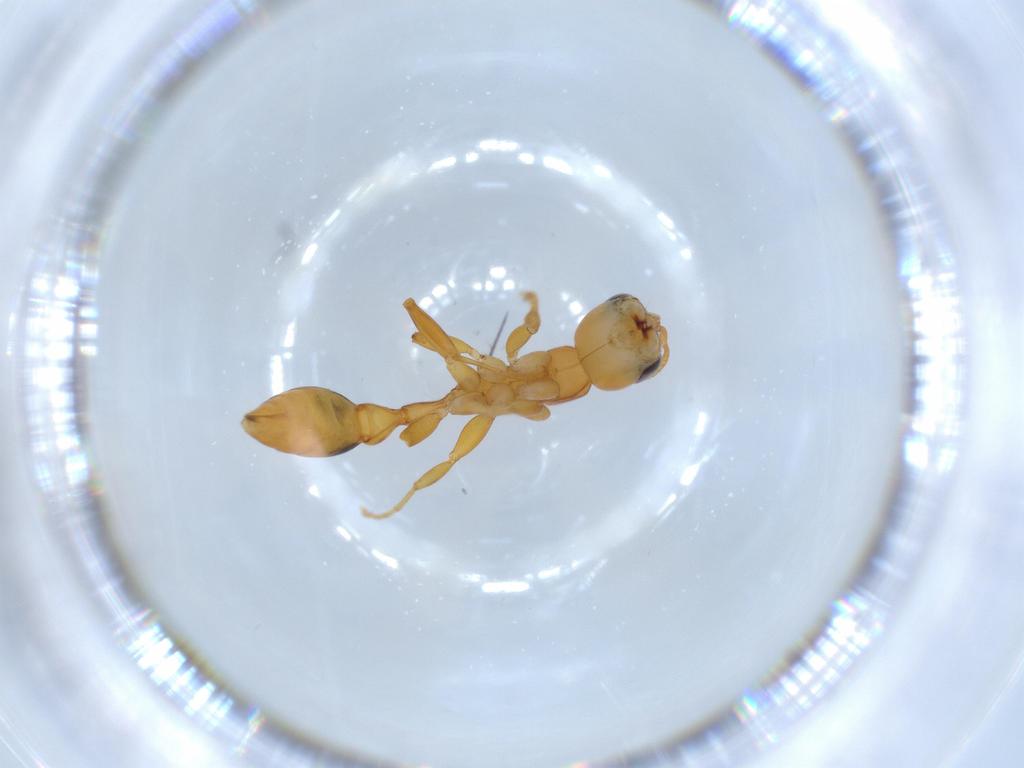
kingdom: Animalia
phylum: Arthropoda
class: Insecta
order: Hymenoptera
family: Formicidae
